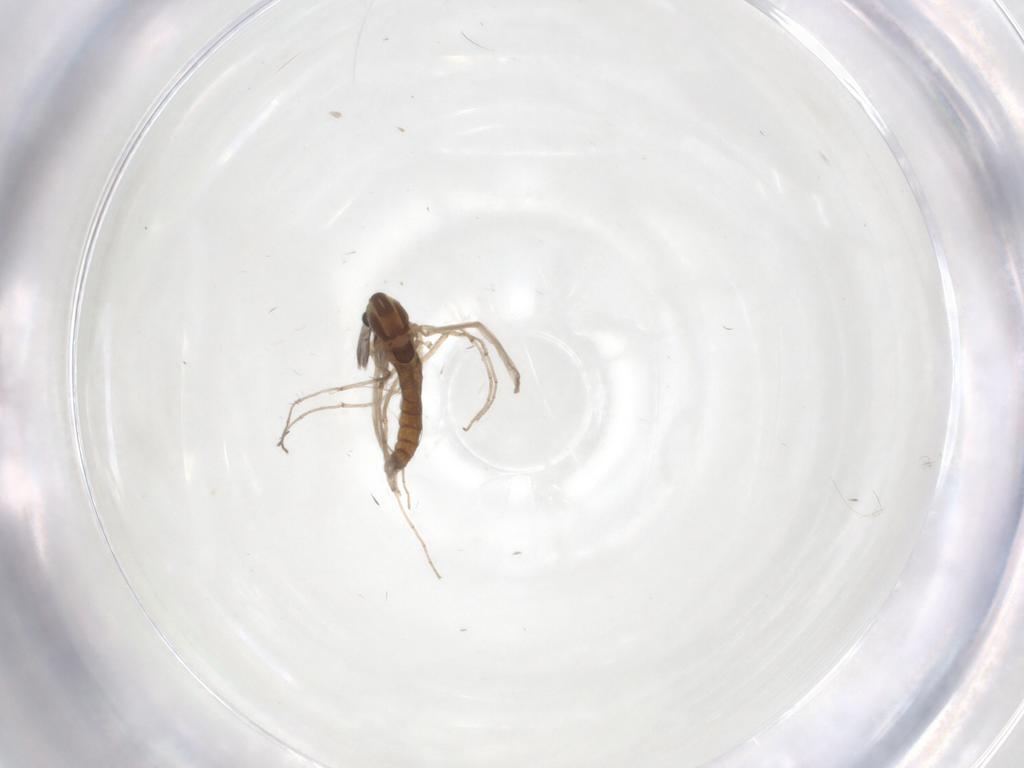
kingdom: Animalia
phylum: Arthropoda
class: Insecta
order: Diptera
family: Chironomidae
